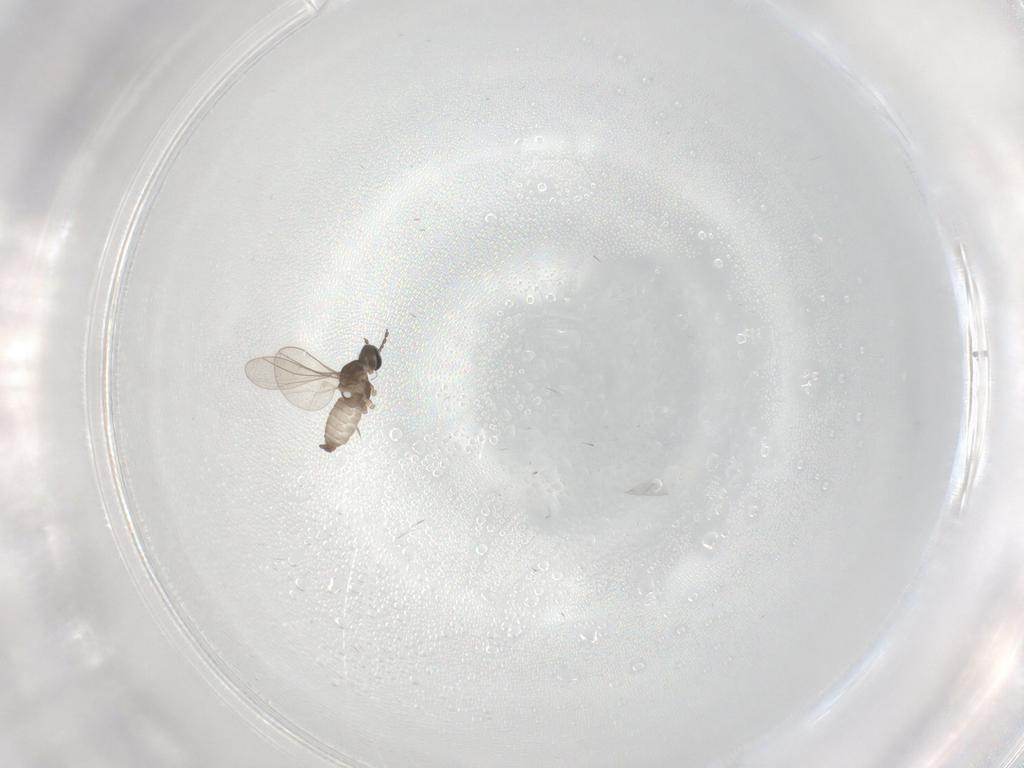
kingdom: Animalia
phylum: Arthropoda
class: Insecta
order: Diptera
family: Cecidomyiidae
